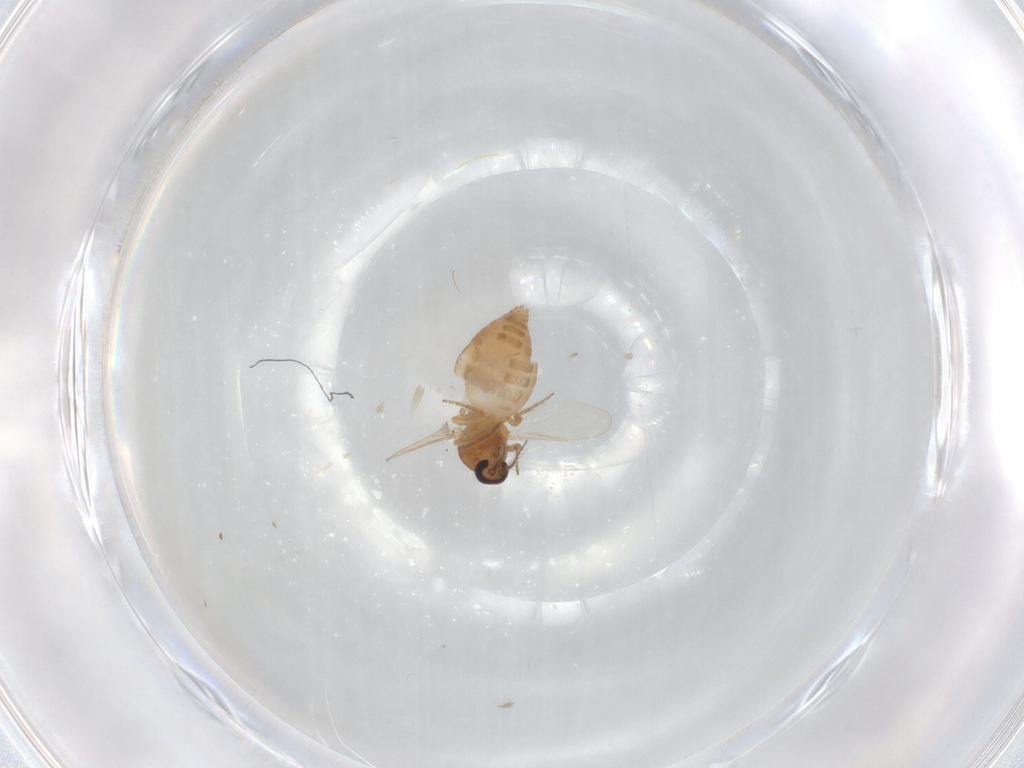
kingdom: Animalia
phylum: Arthropoda
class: Insecta
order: Diptera
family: Ceratopogonidae
